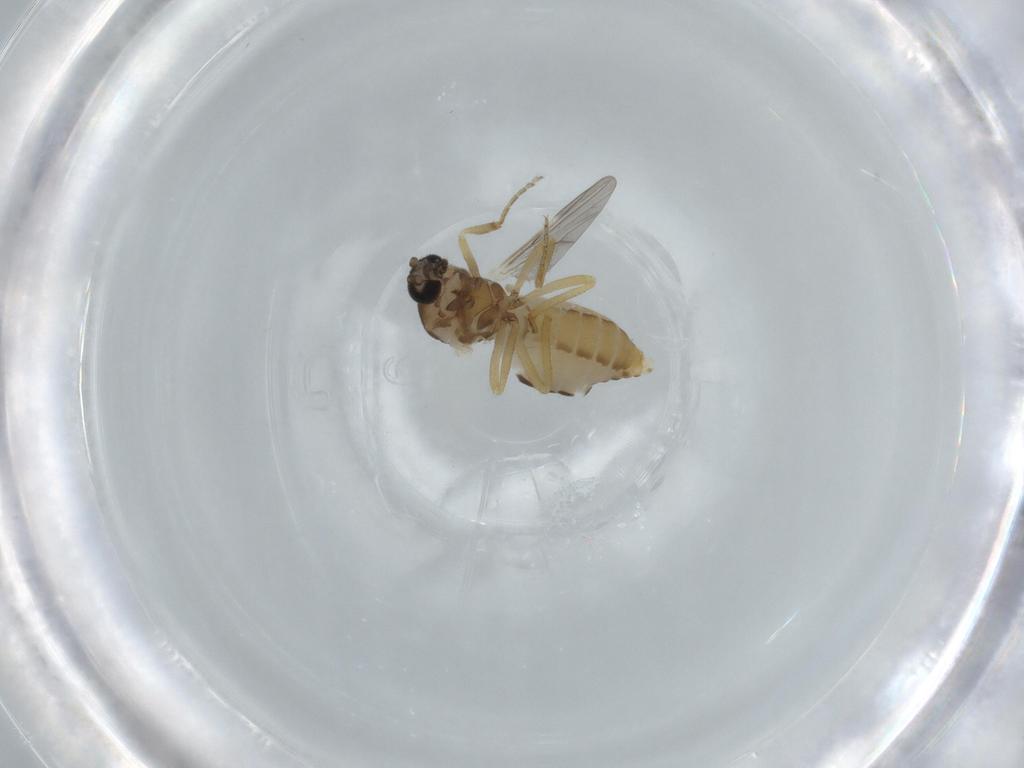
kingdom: Animalia
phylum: Arthropoda
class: Insecta
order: Diptera
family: Ceratopogonidae
